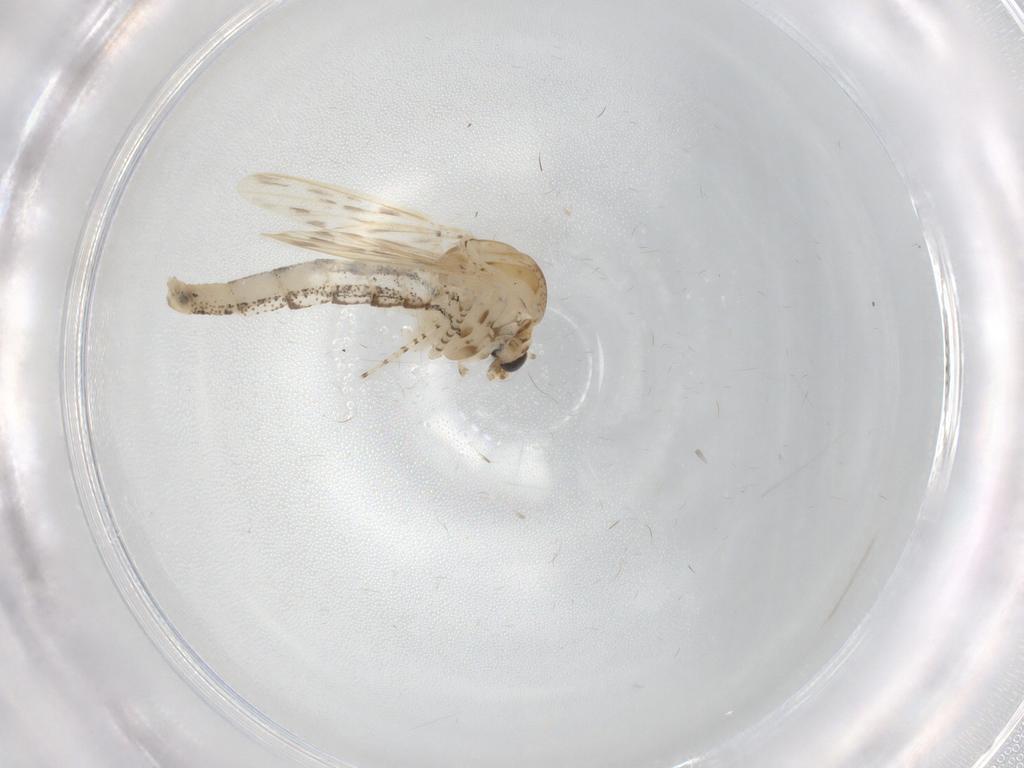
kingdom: Animalia
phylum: Arthropoda
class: Insecta
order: Diptera
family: Chaoboridae
